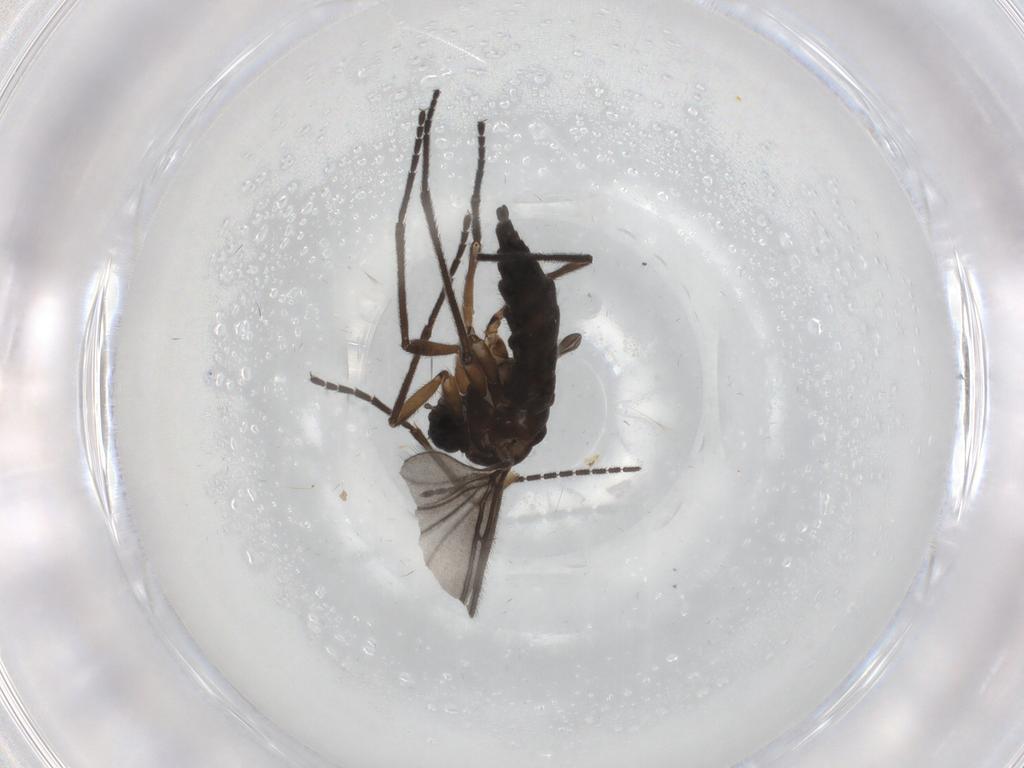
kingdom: Animalia
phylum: Arthropoda
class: Insecta
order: Diptera
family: Sciaridae
